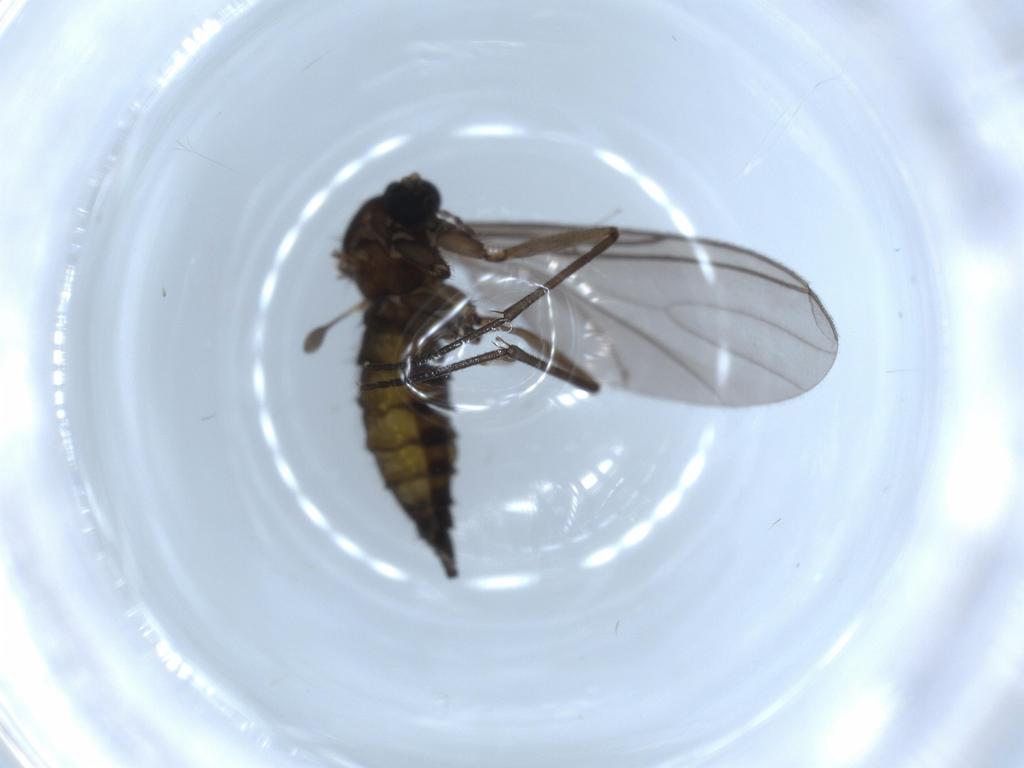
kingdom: Animalia
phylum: Arthropoda
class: Insecta
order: Diptera
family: Sciaridae
